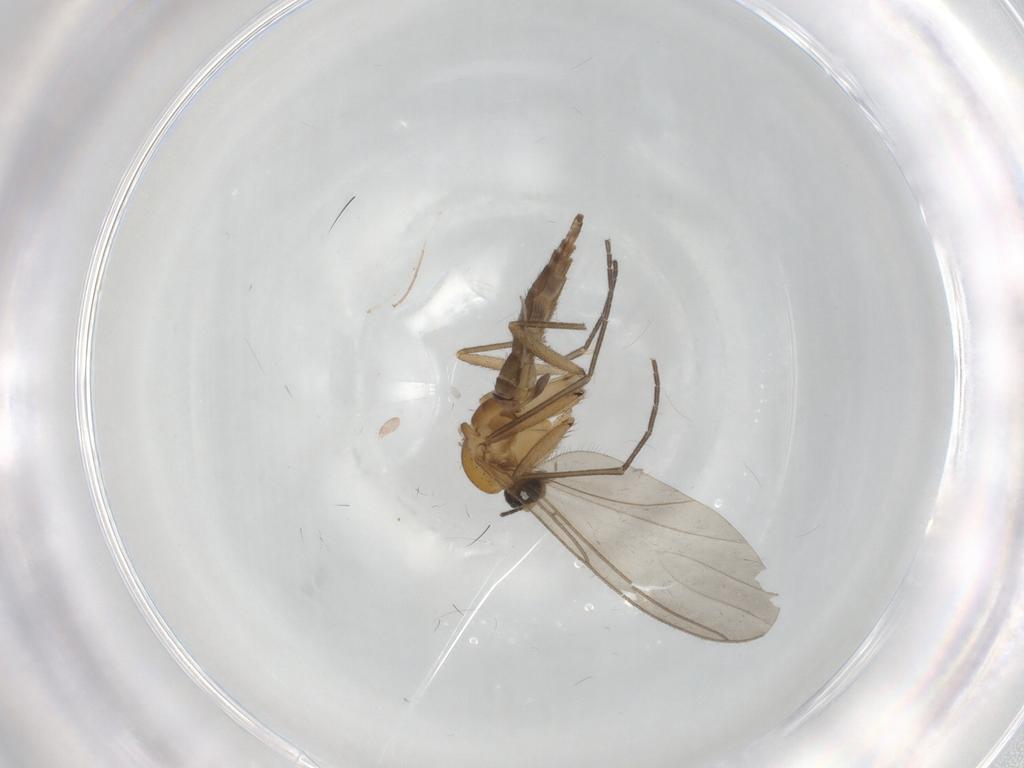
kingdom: Animalia
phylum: Arthropoda
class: Insecta
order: Diptera
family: Sciaridae
